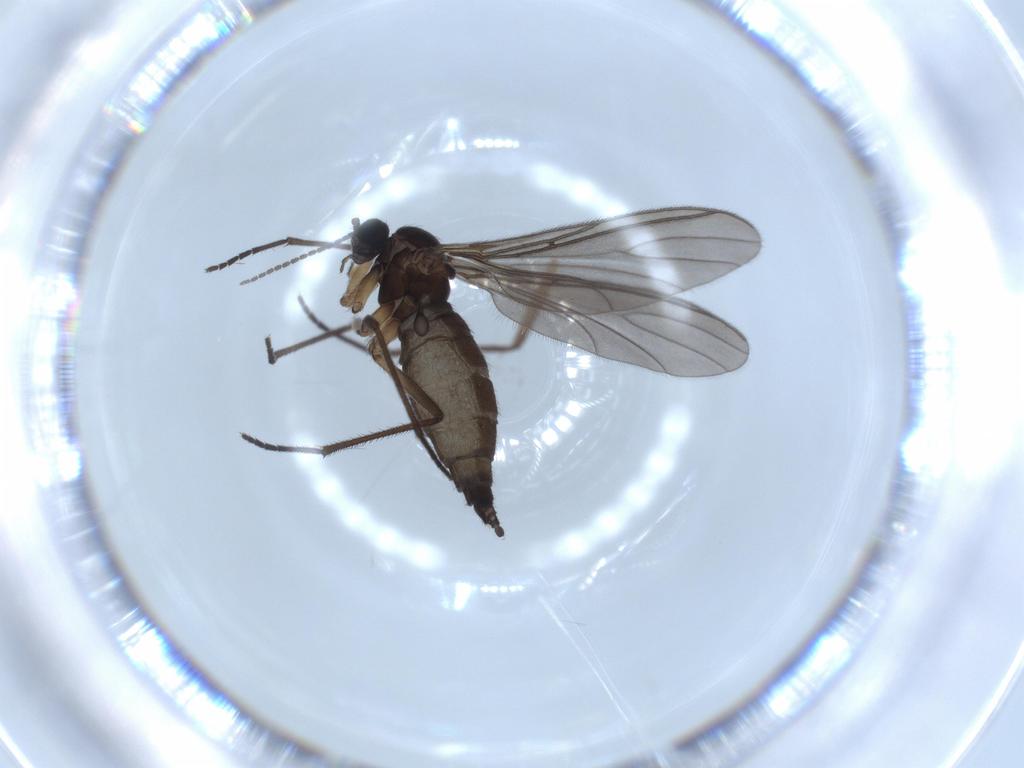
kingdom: Animalia
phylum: Arthropoda
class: Insecta
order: Diptera
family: Sciaridae
